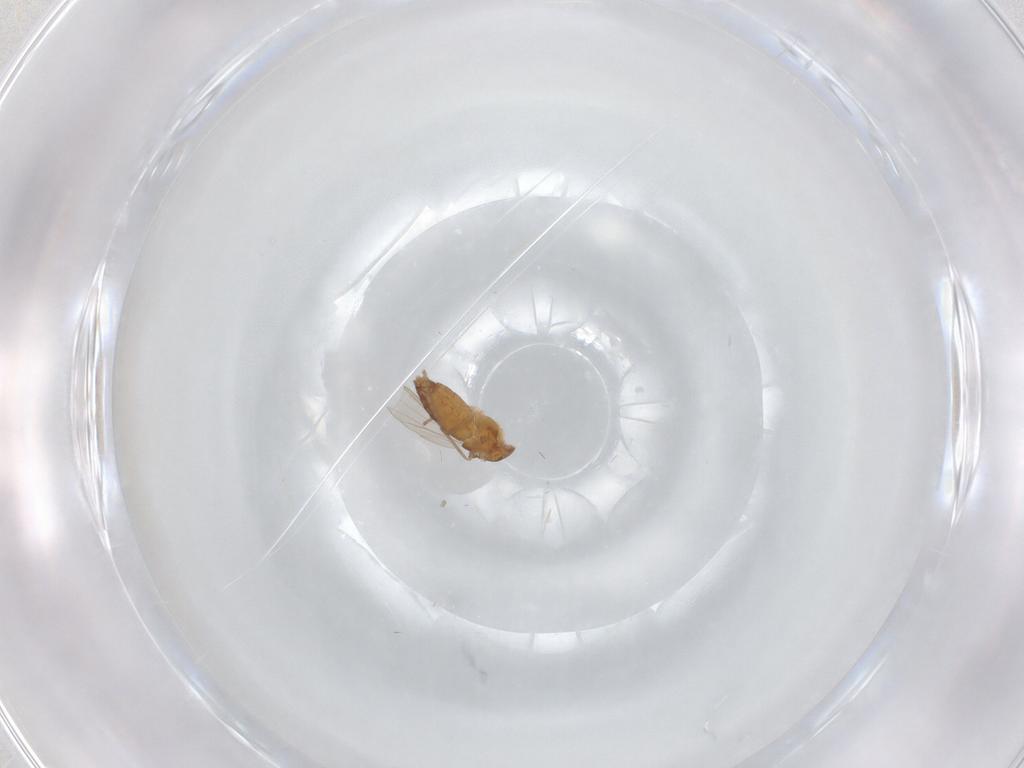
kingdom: Animalia
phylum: Arthropoda
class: Insecta
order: Diptera
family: Chironomidae
